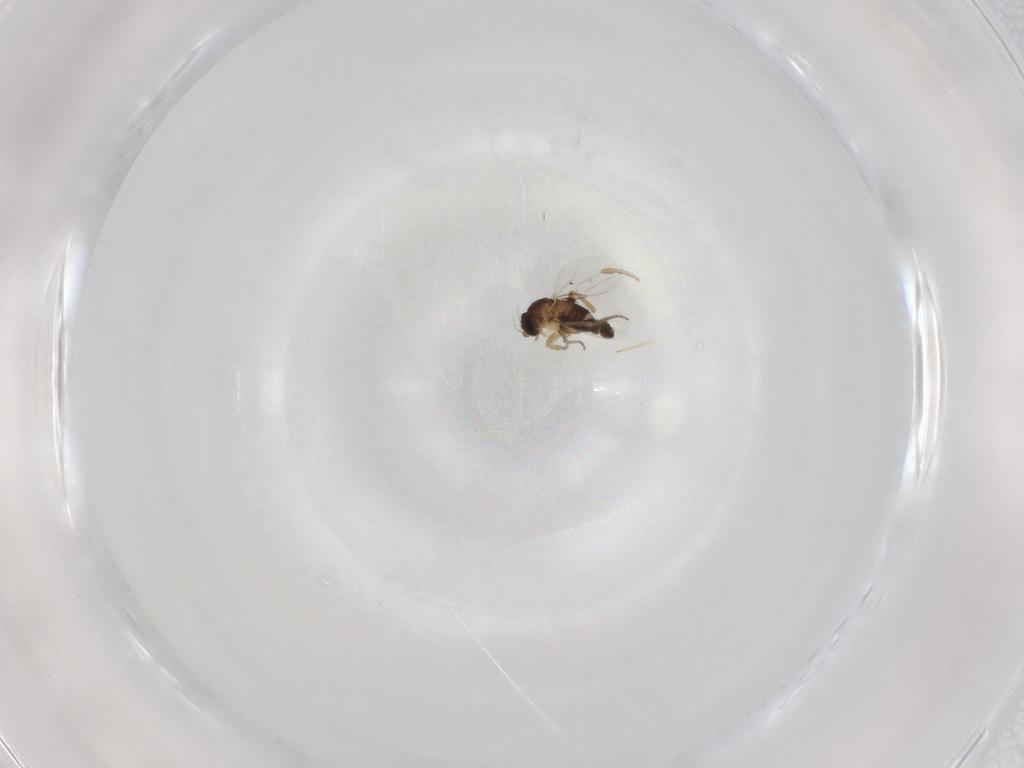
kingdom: Animalia
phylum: Arthropoda
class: Insecta
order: Diptera
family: Phoridae
